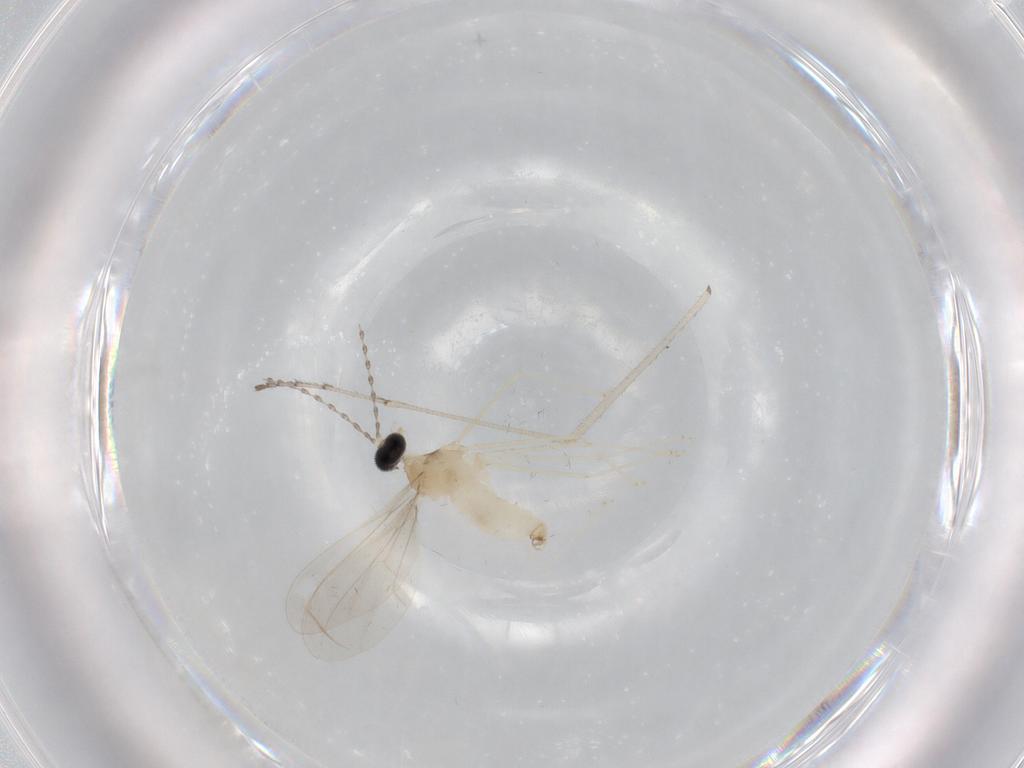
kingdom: Animalia
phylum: Arthropoda
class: Insecta
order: Diptera
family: Cecidomyiidae
